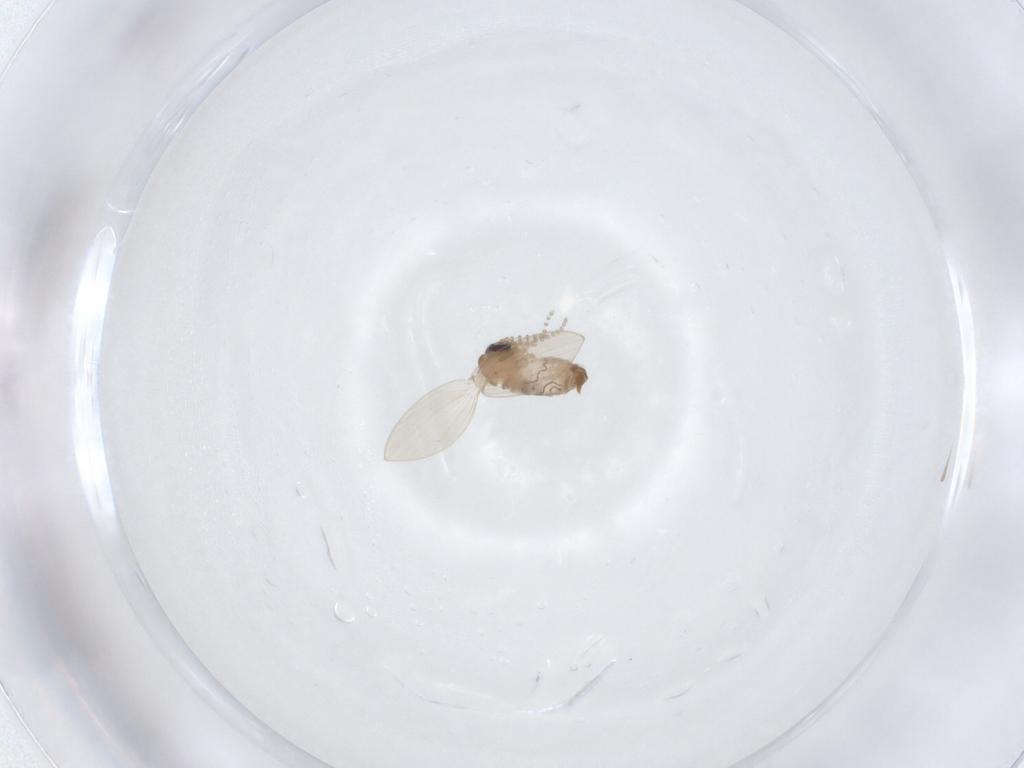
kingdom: Animalia
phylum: Arthropoda
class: Insecta
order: Diptera
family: Psychodidae
